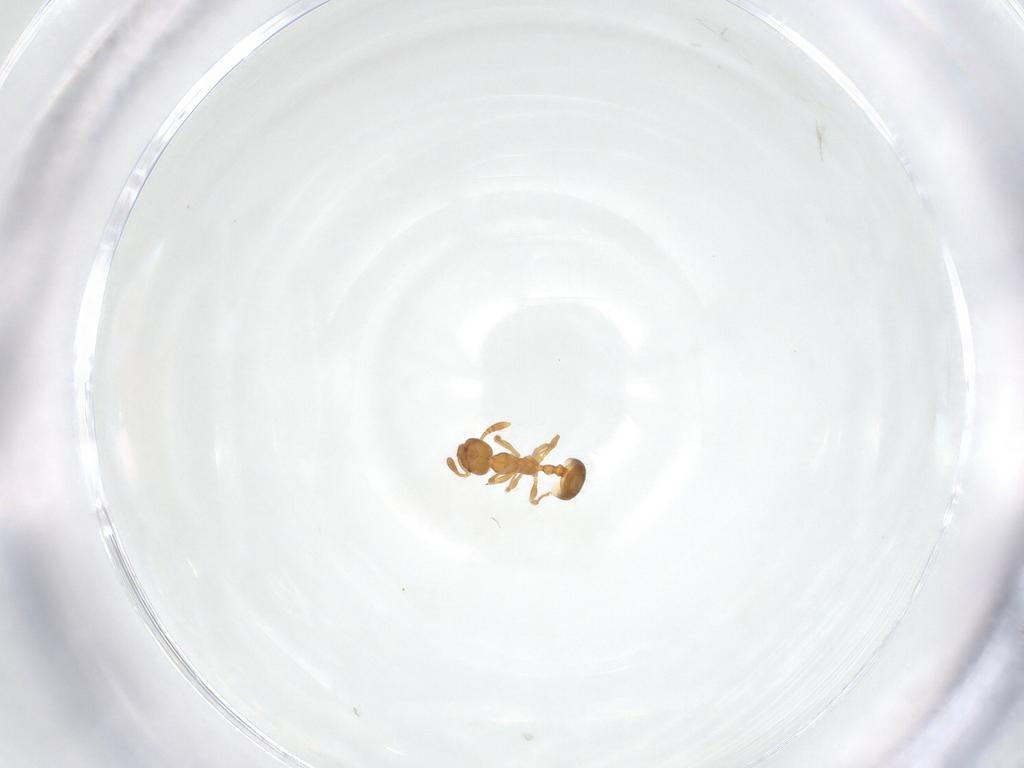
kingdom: Animalia
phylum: Arthropoda
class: Insecta
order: Hymenoptera
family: Formicidae
